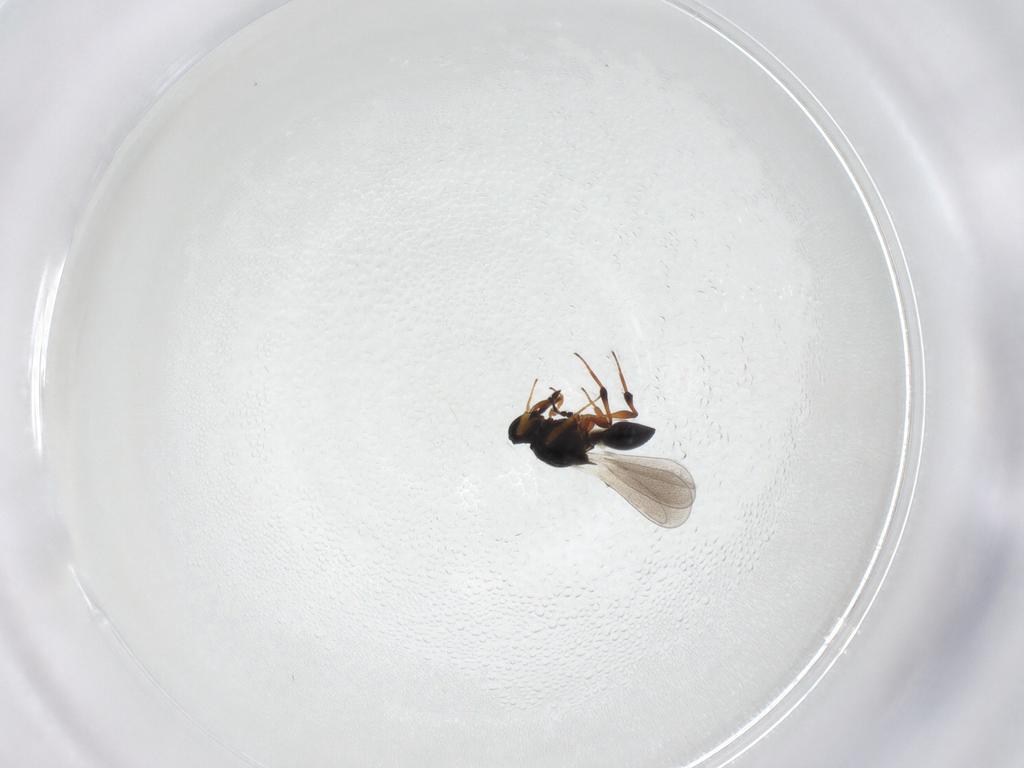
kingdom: Animalia
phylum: Arthropoda
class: Insecta
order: Hymenoptera
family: Platygastridae
